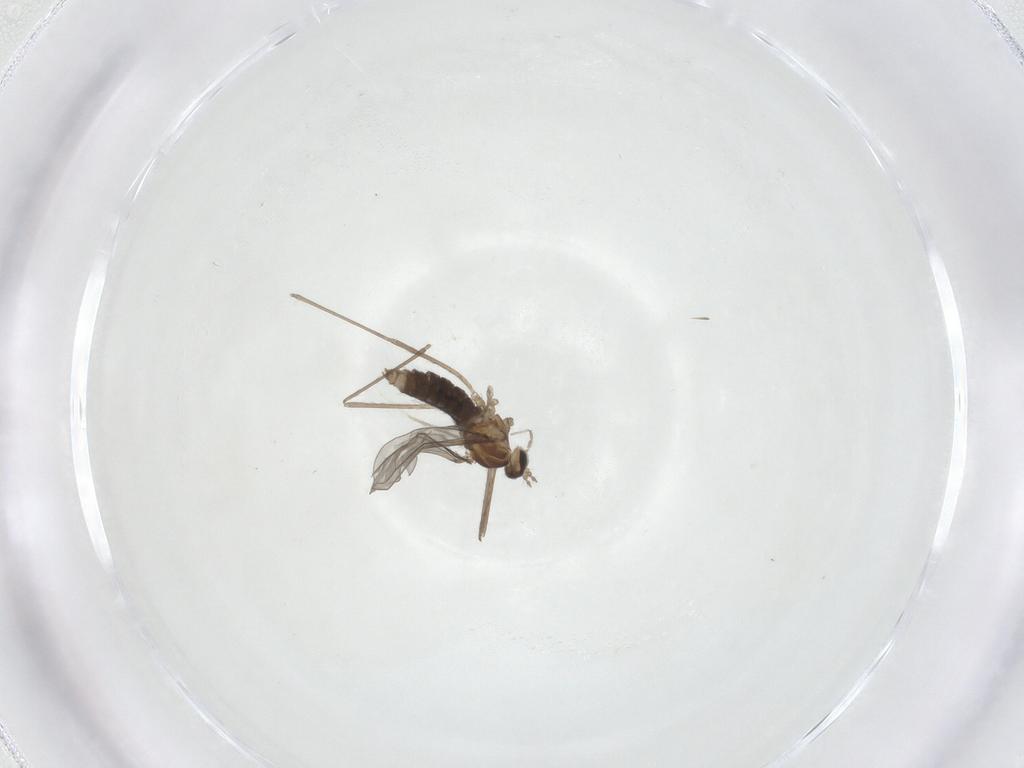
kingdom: Animalia
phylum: Arthropoda
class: Insecta
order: Diptera
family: Cecidomyiidae
